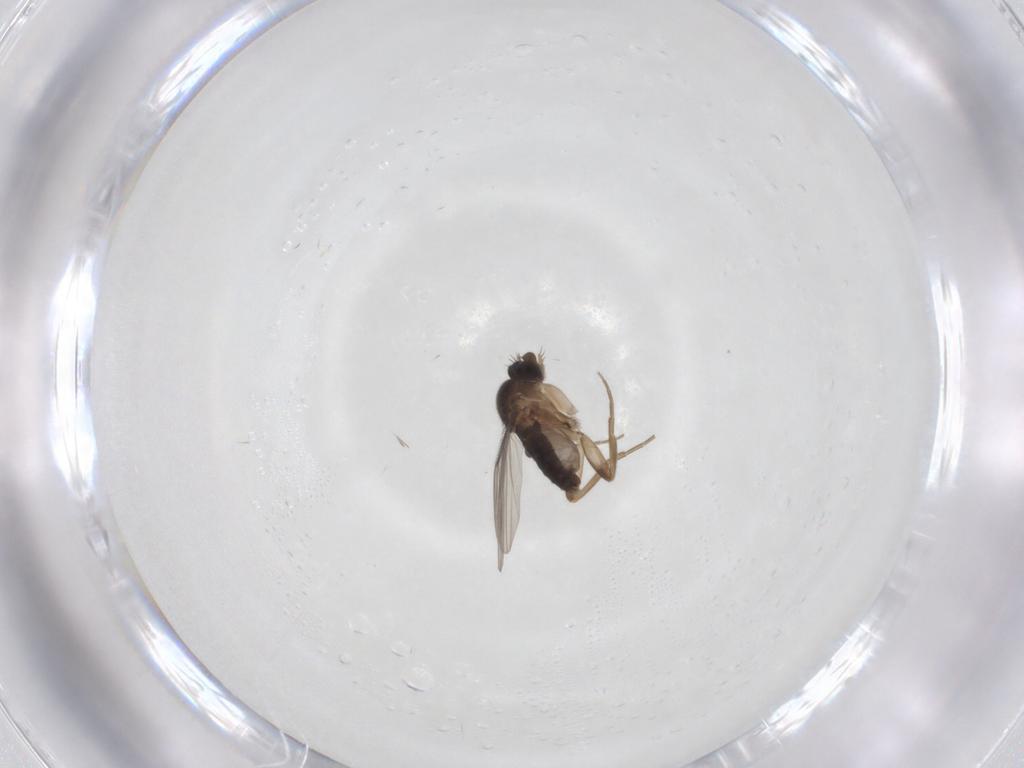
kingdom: Animalia
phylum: Arthropoda
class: Insecta
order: Diptera
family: Phoridae
